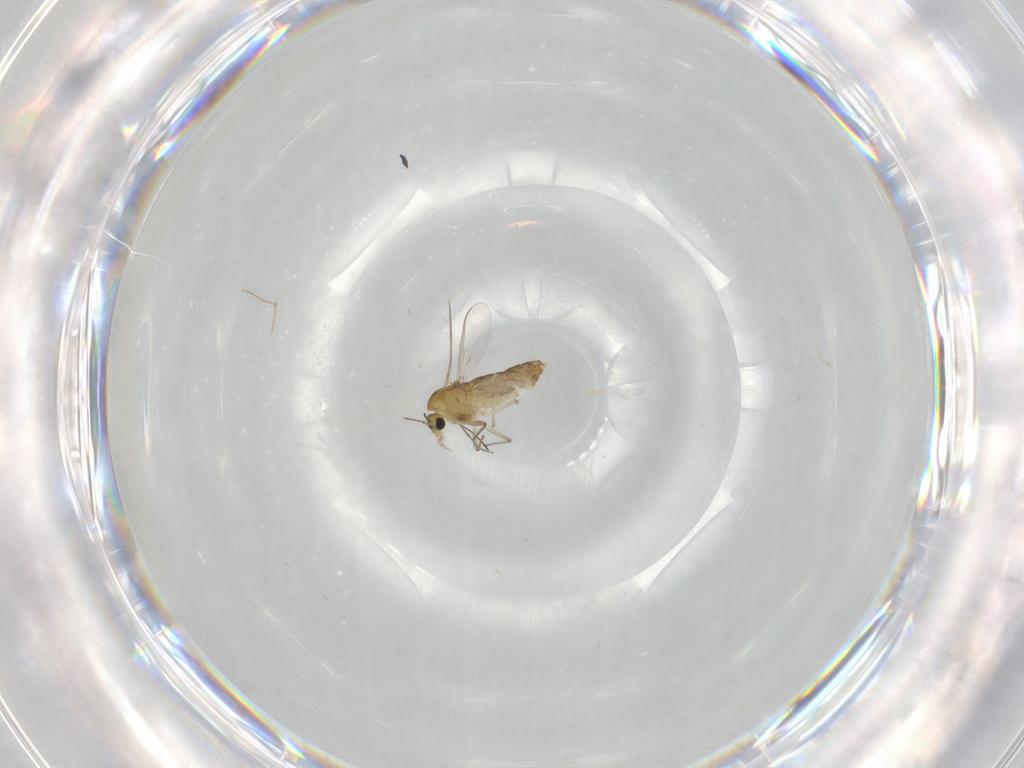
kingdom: Animalia
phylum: Arthropoda
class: Insecta
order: Diptera
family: Chironomidae
